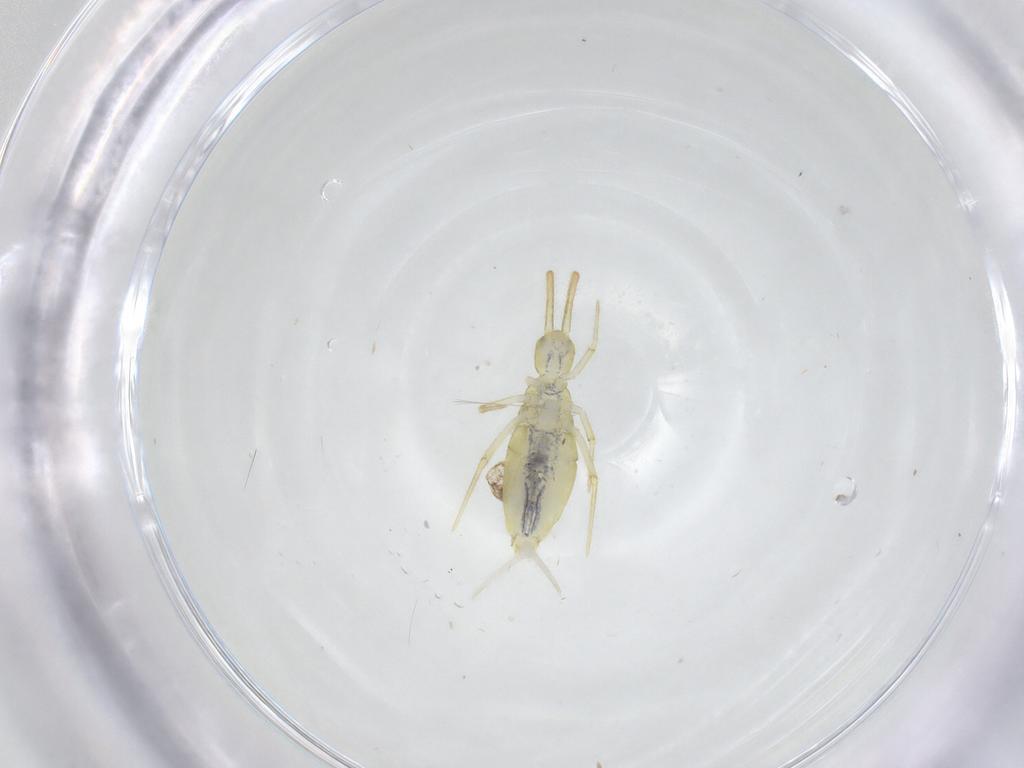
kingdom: Animalia
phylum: Arthropoda
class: Collembola
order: Entomobryomorpha
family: Paronellidae
